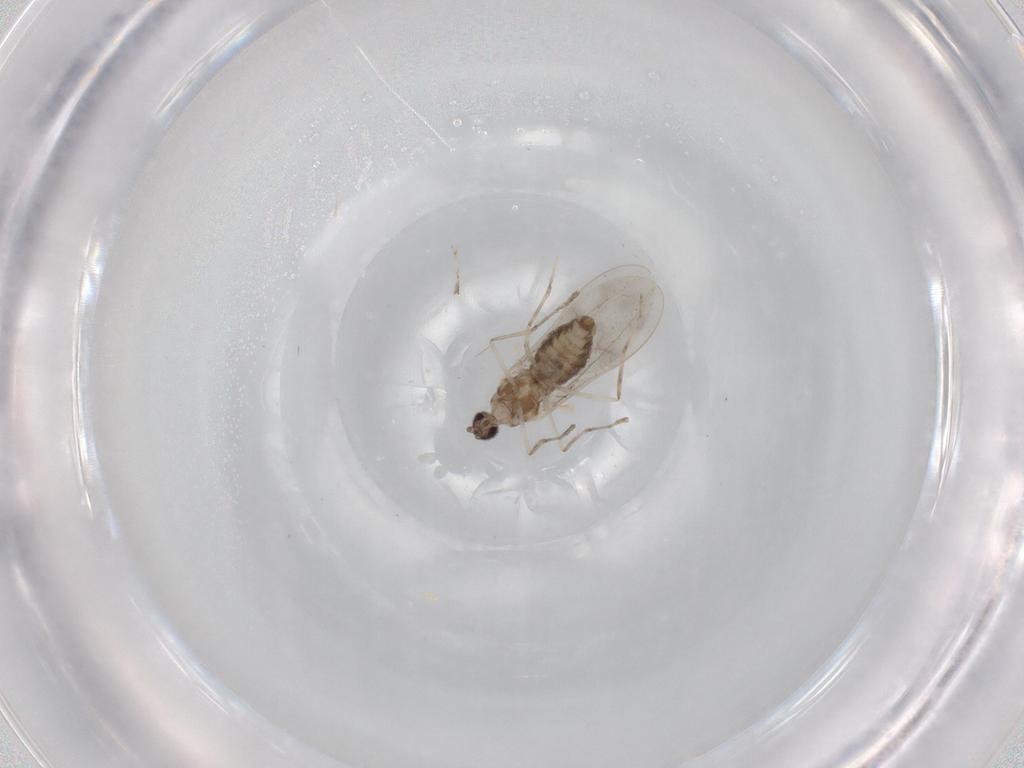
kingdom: Animalia
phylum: Arthropoda
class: Insecta
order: Diptera
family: Cecidomyiidae
